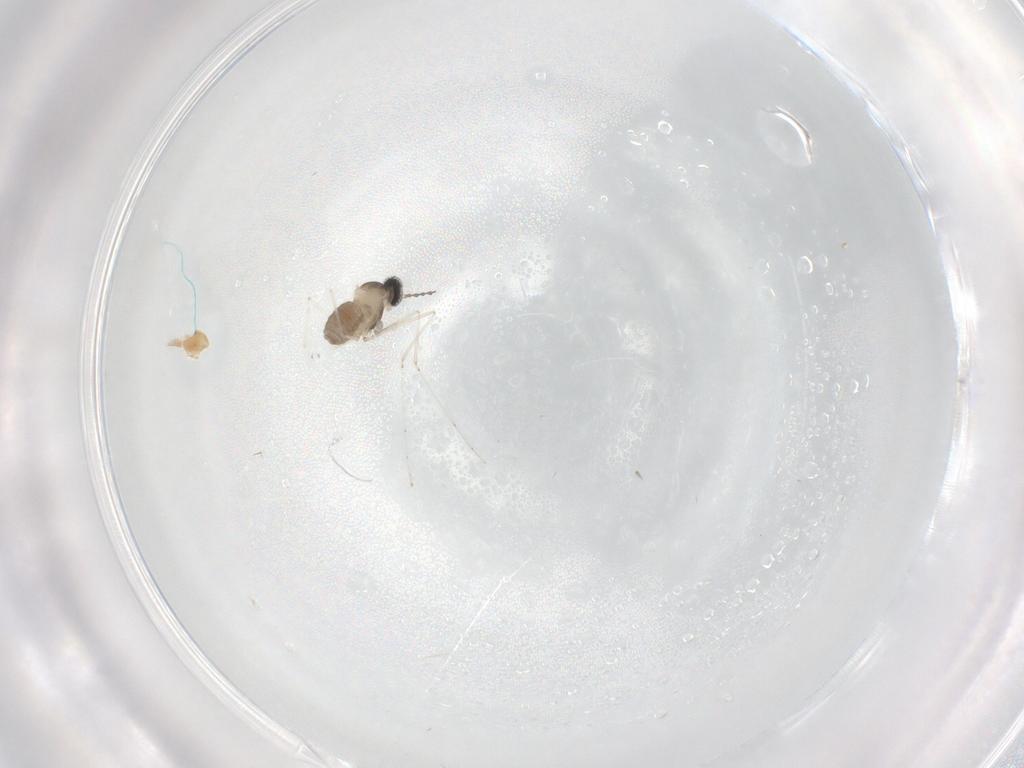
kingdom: Animalia
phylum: Arthropoda
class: Insecta
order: Diptera
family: Cecidomyiidae
